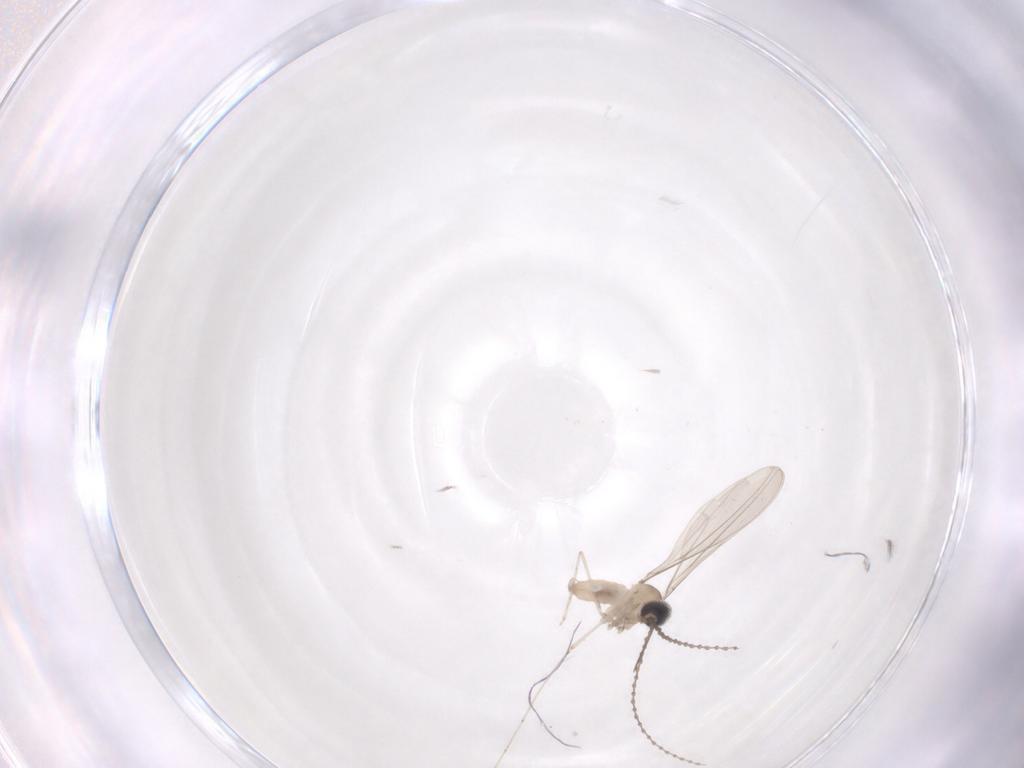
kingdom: Animalia
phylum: Arthropoda
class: Insecta
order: Diptera
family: Cecidomyiidae
